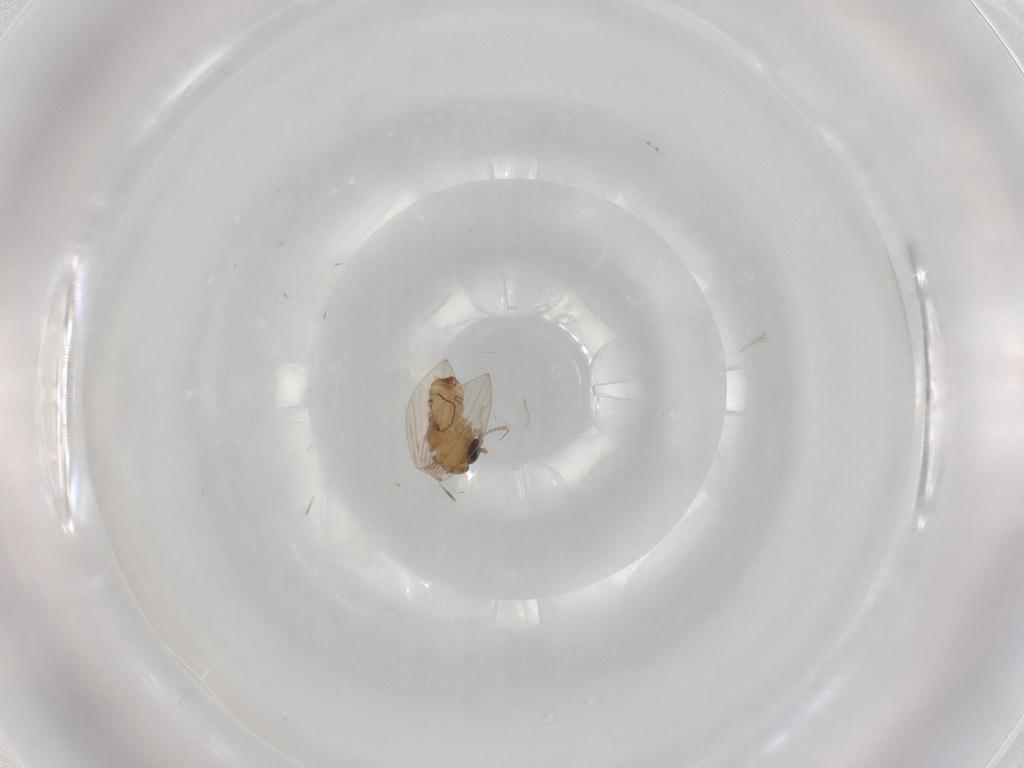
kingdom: Animalia
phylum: Arthropoda
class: Insecta
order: Diptera
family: Psychodidae
